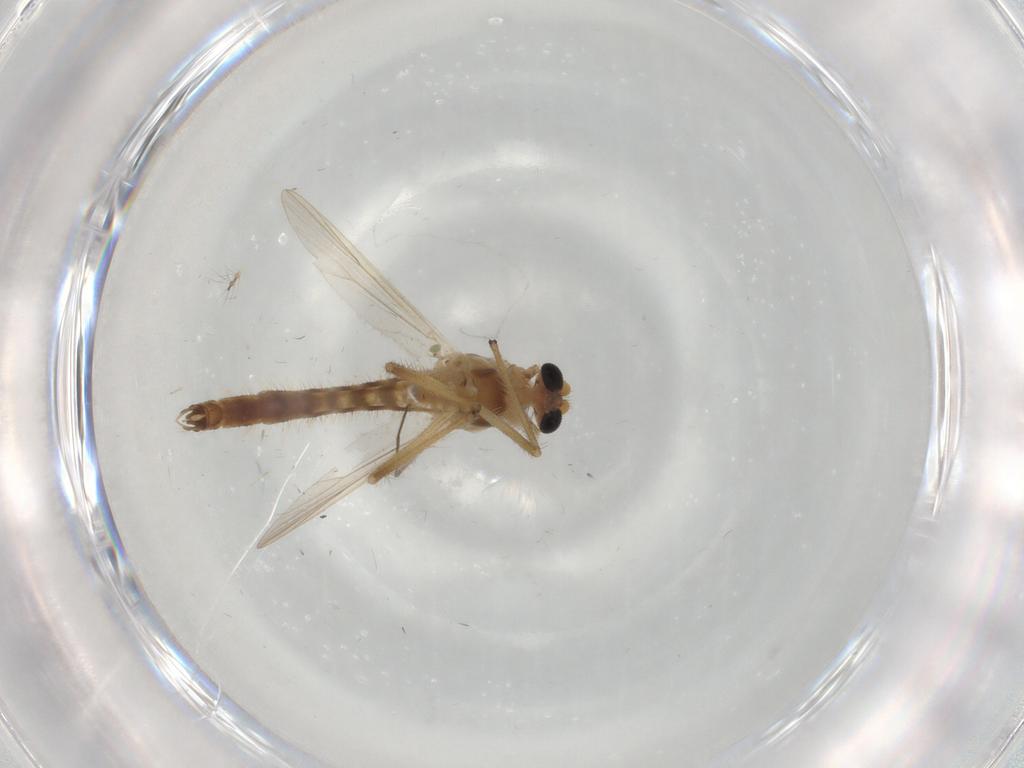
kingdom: Animalia
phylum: Arthropoda
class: Insecta
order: Diptera
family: Chironomidae
